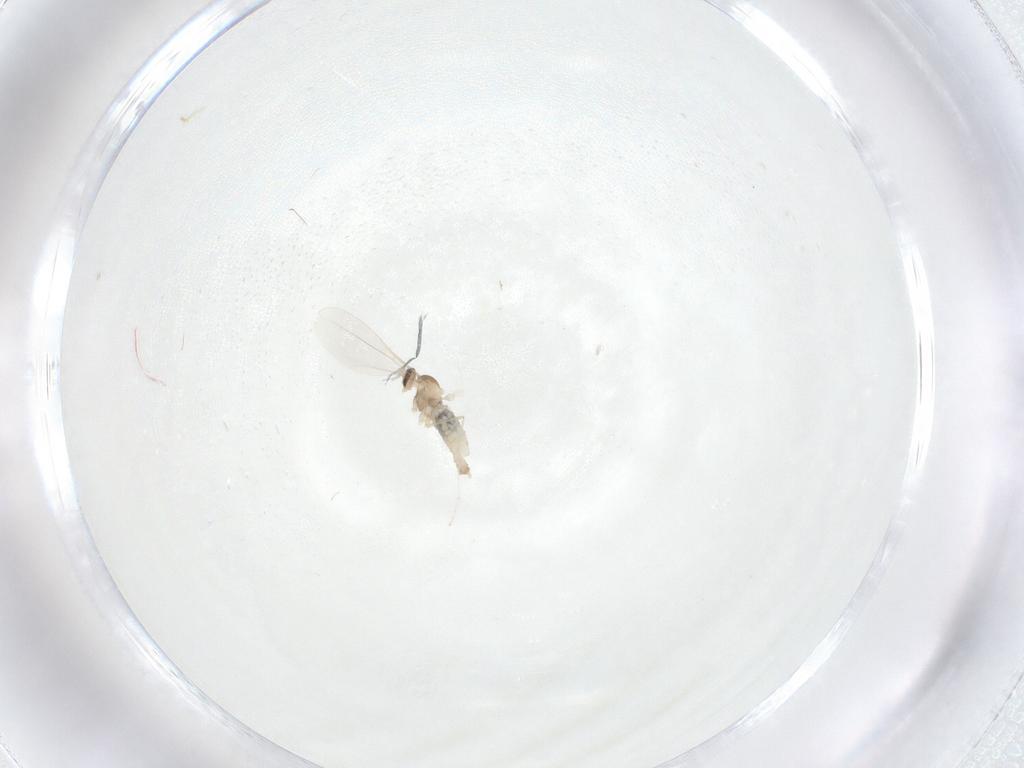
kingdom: Animalia
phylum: Arthropoda
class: Insecta
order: Diptera
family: Cecidomyiidae
